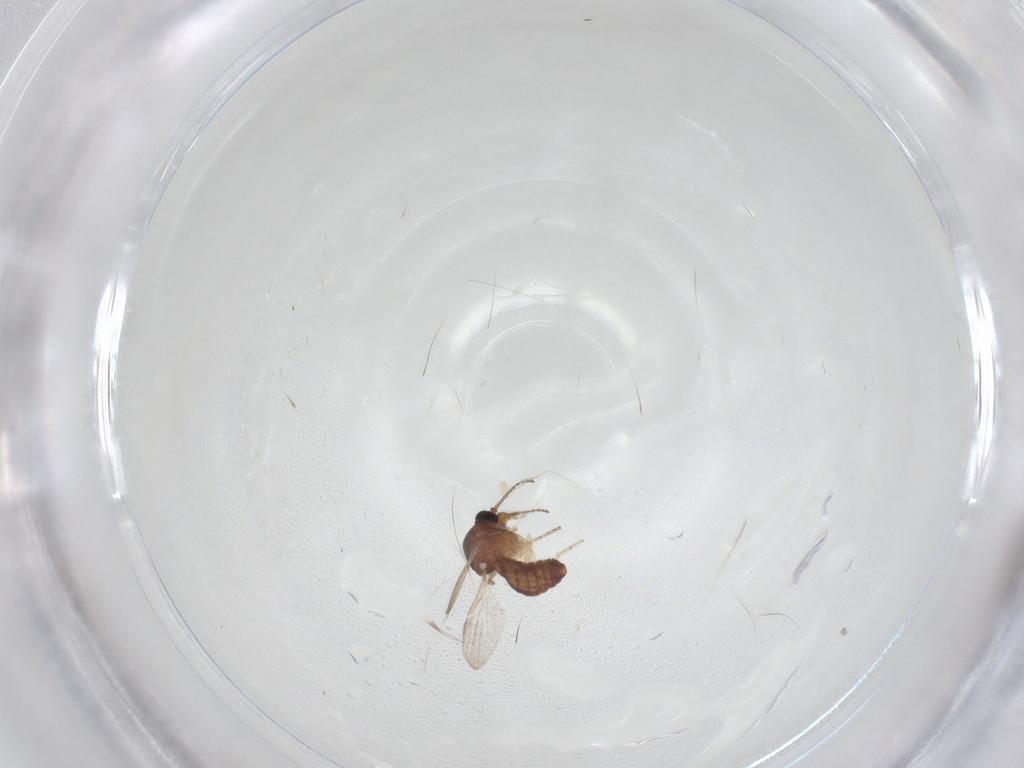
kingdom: Animalia
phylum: Arthropoda
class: Insecta
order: Diptera
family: Ceratopogonidae
